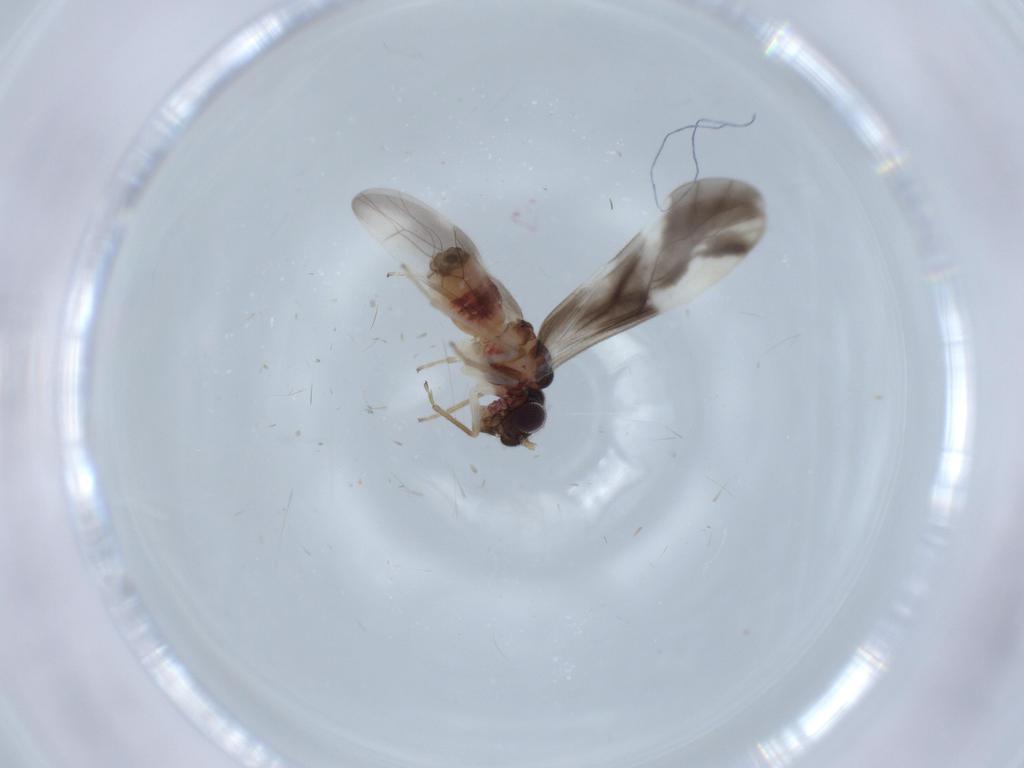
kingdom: Animalia
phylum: Arthropoda
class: Insecta
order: Psocodea
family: Caeciliusidae
